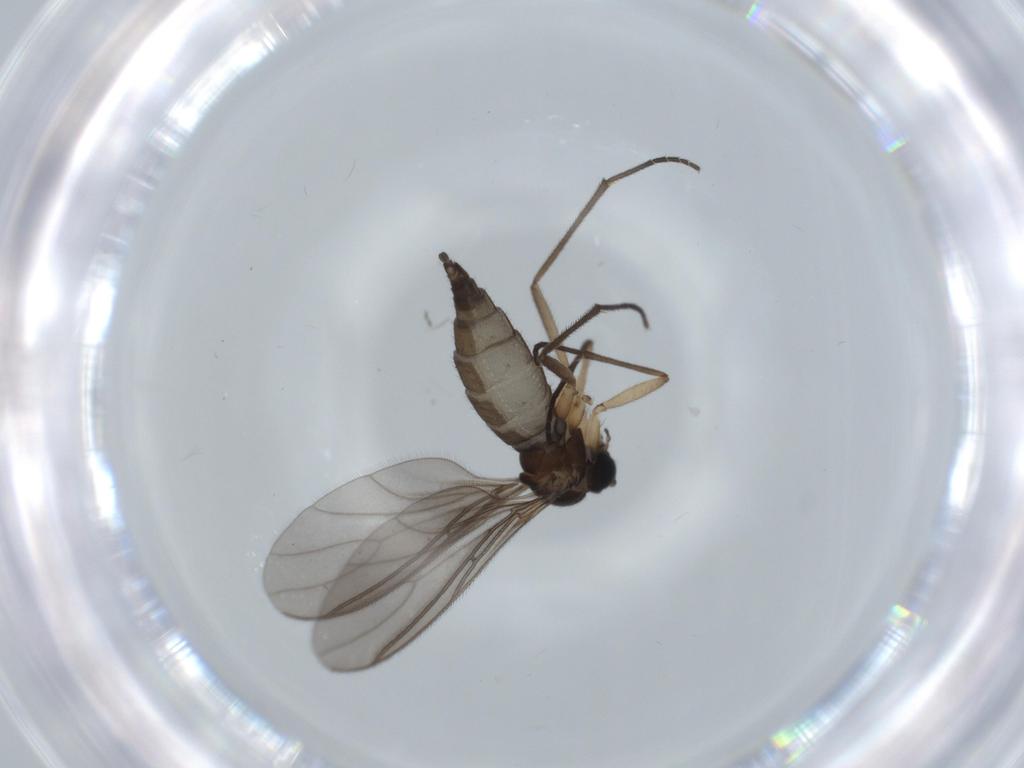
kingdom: Animalia
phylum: Arthropoda
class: Insecta
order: Diptera
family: Sciaridae
